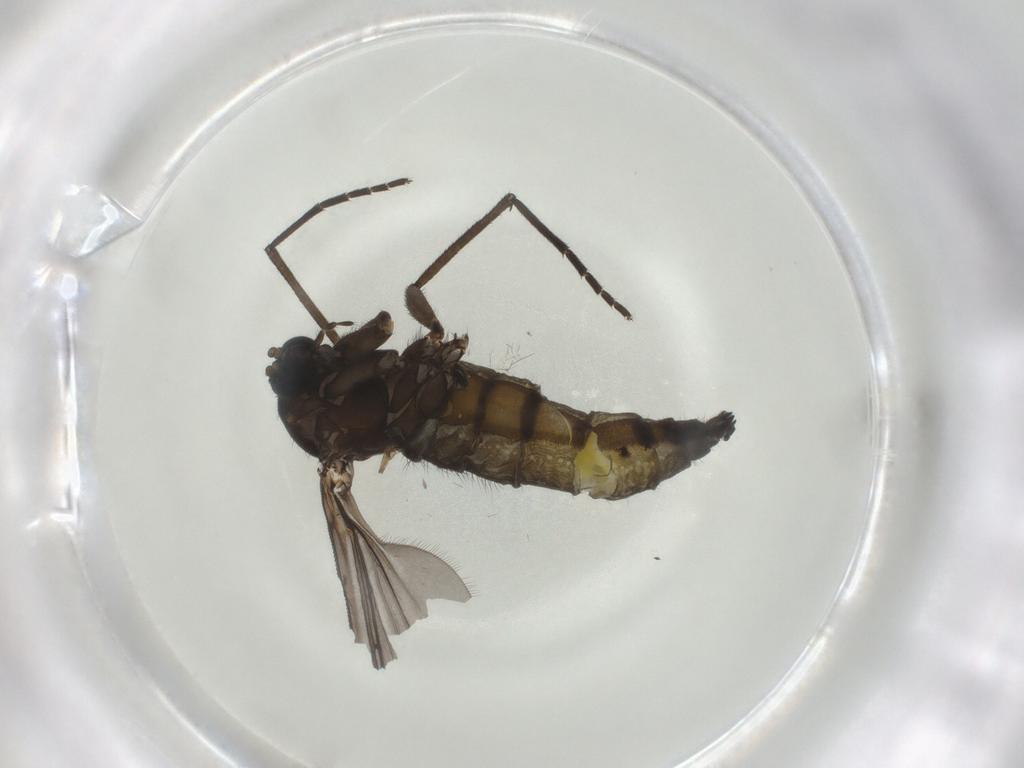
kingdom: Animalia
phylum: Arthropoda
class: Insecta
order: Diptera
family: Sciaridae
